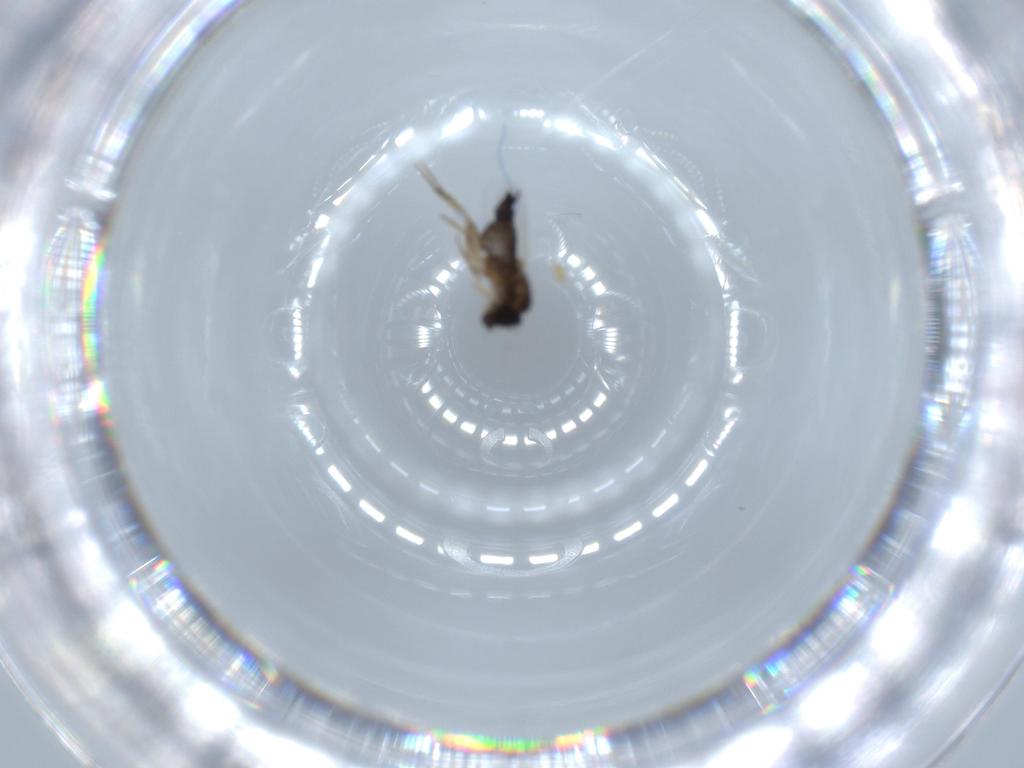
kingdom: Animalia
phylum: Arthropoda
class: Insecta
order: Diptera
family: Phoridae
